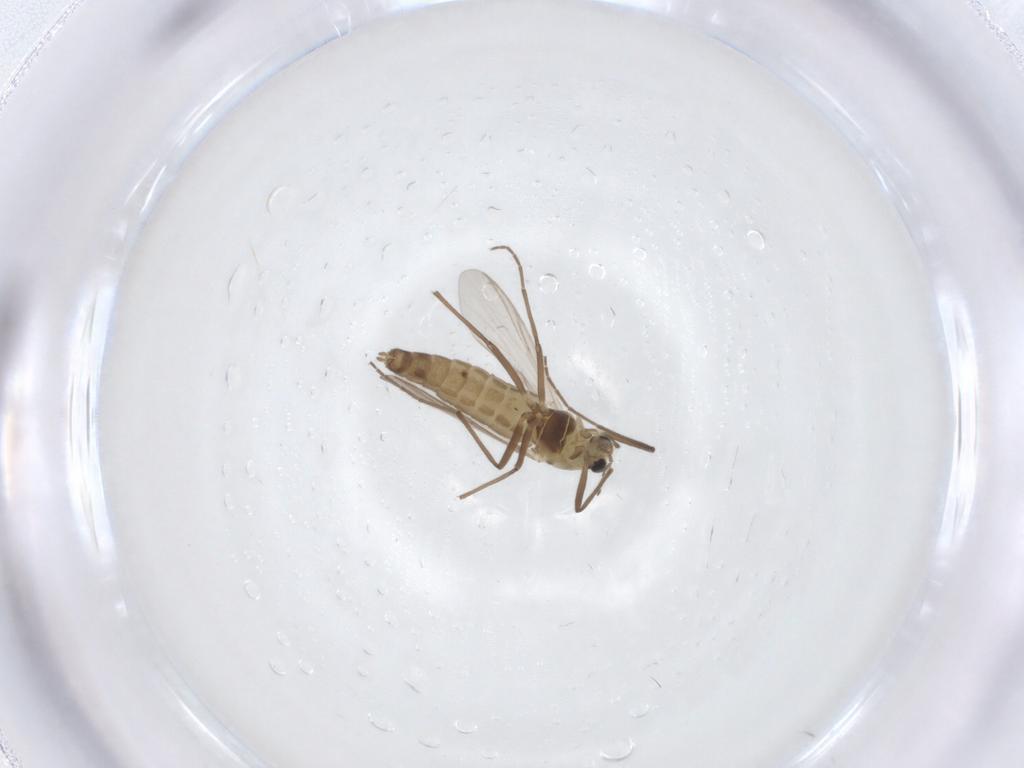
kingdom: Animalia
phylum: Arthropoda
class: Insecta
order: Diptera
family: Chironomidae
